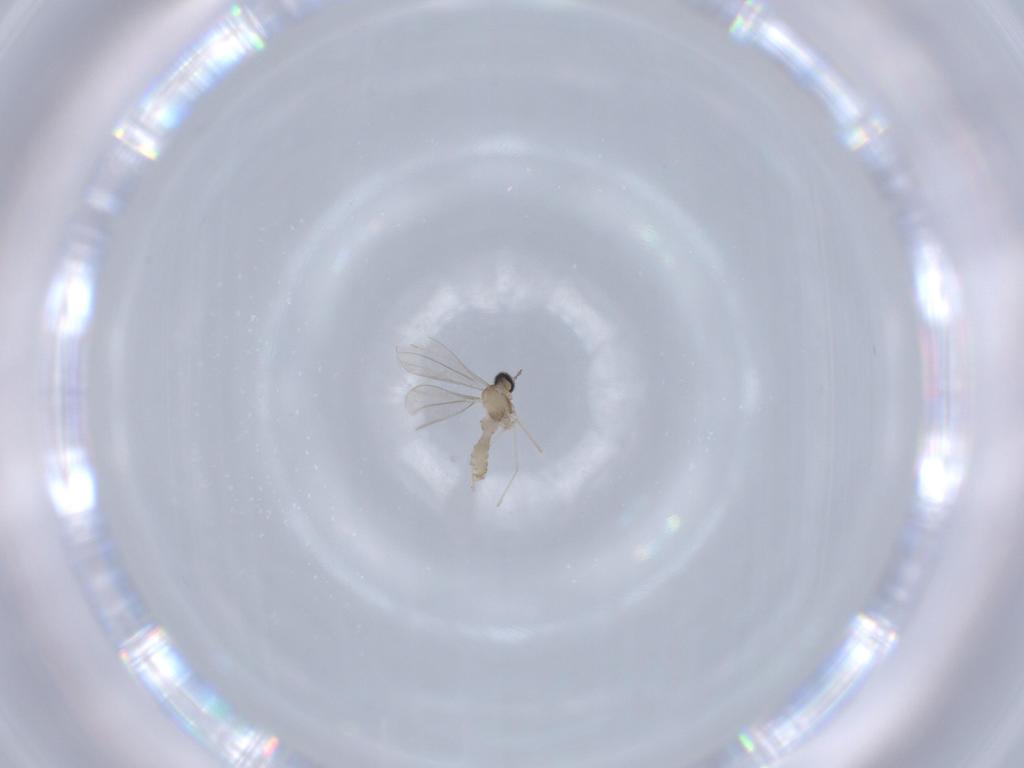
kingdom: Animalia
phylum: Arthropoda
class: Insecta
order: Diptera
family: Cecidomyiidae
